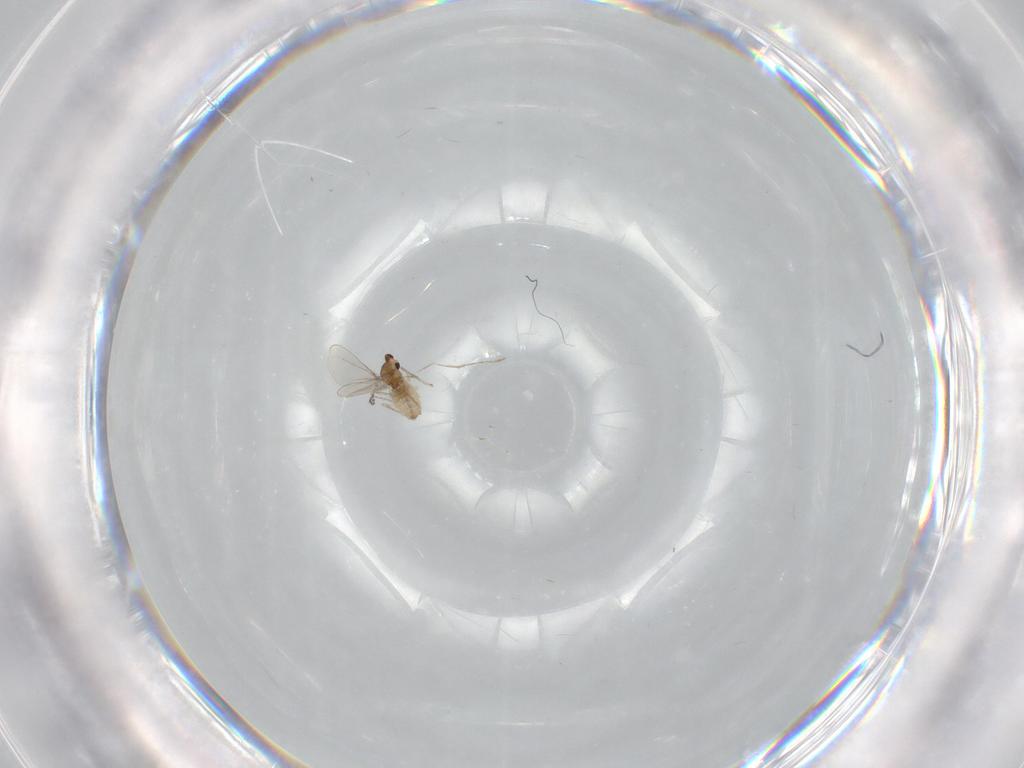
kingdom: Animalia
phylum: Arthropoda
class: Insecta
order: Diptera
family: Cecidomyiidae
